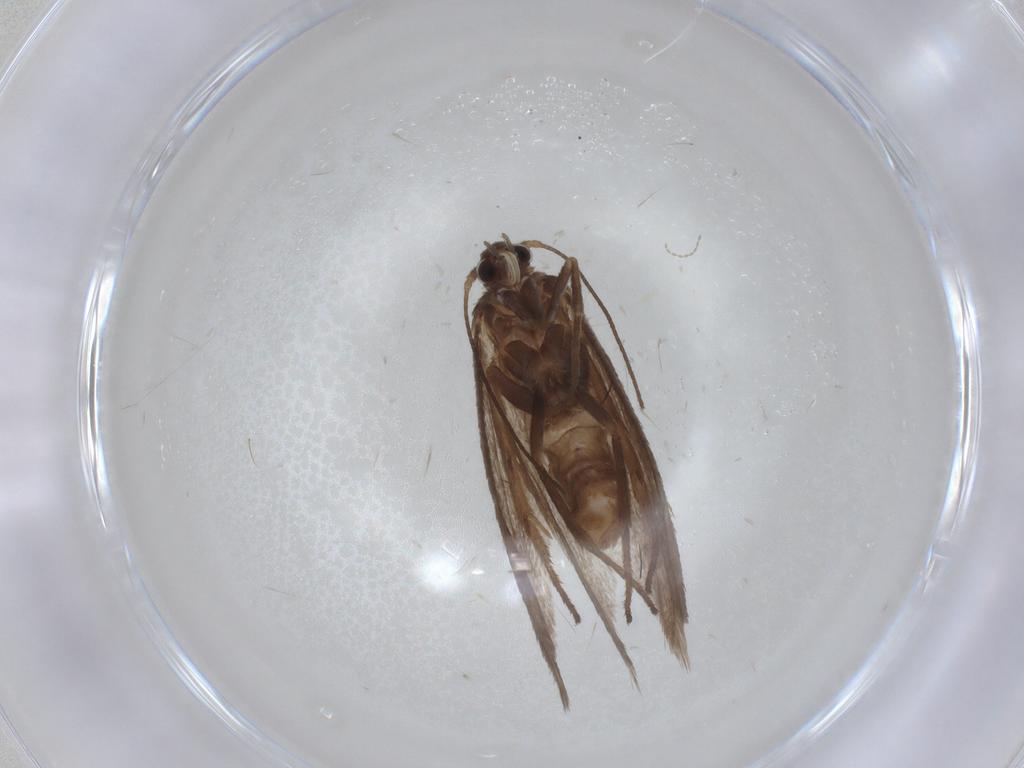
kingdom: Animalia
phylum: Arthropoda
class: Insecta
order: Lepidoptera
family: Limacodidae
